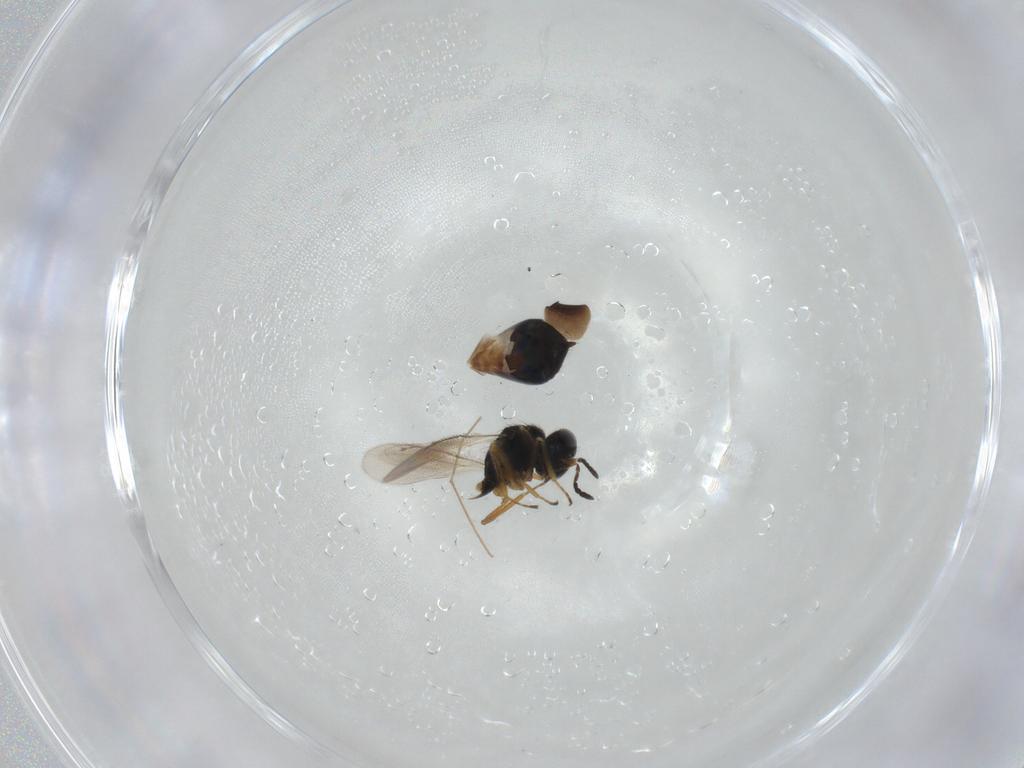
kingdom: Animalia
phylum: Arthropoda
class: Insecta
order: Hymenoptera
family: Eulophidae
